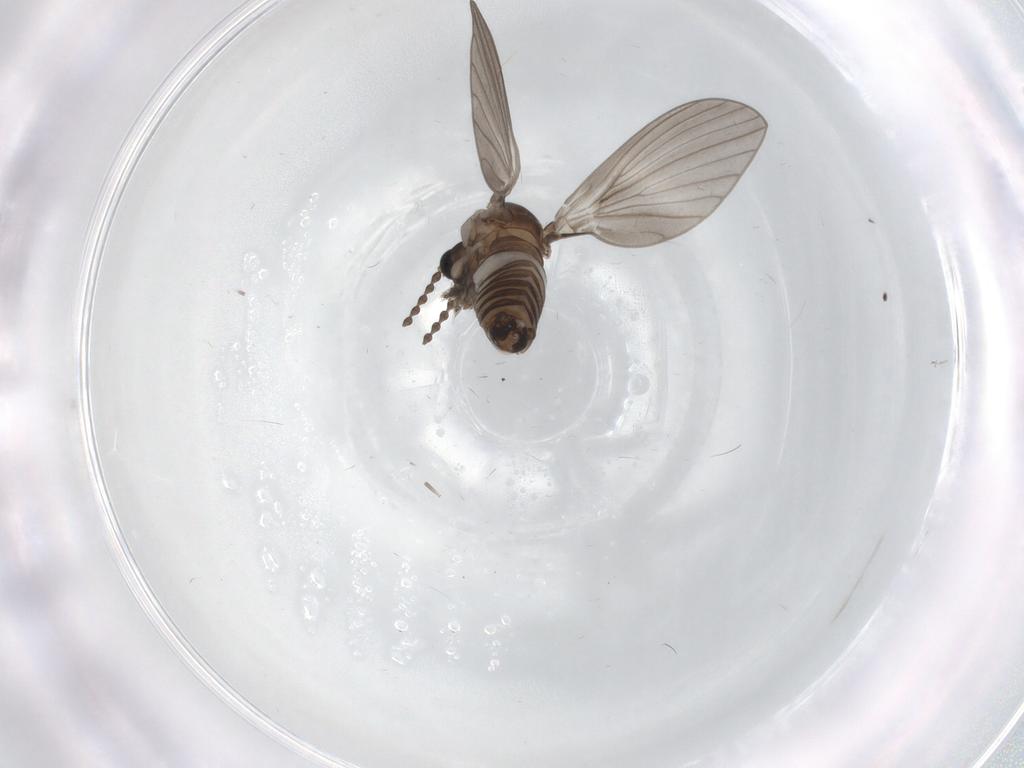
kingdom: Animalia
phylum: Arthropoda
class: Insecta
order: Diptera
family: Psychodidae
